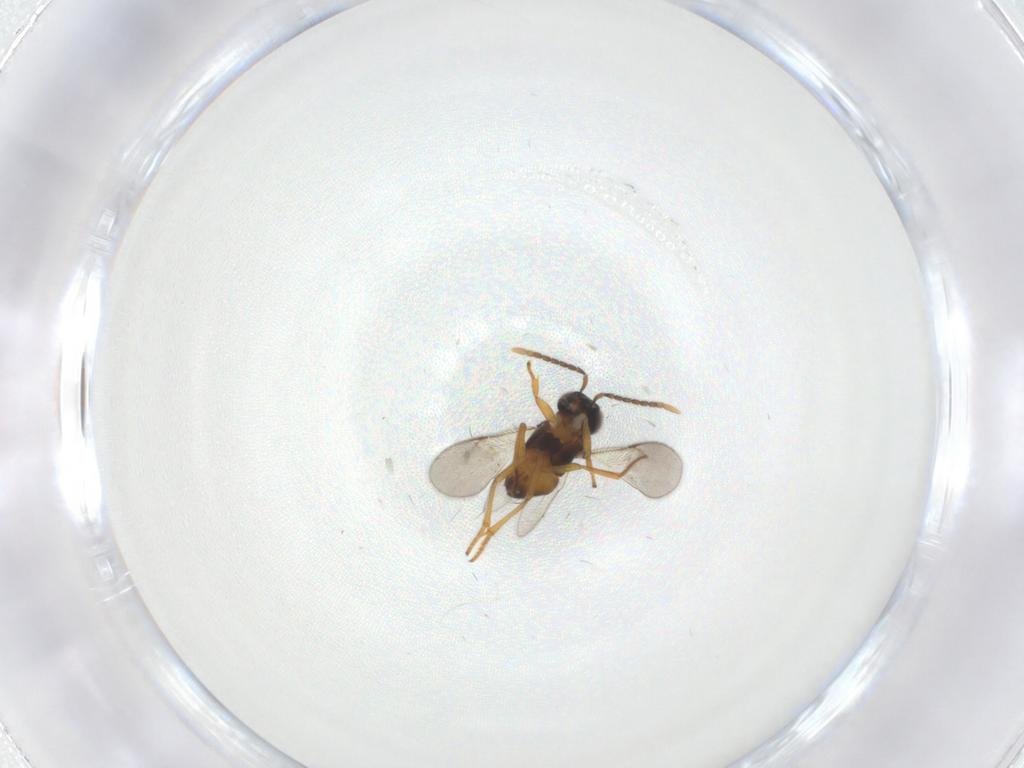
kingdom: Animalia
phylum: Arthropoda
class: Insecta
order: Hymenoptera
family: Encyrtidae
